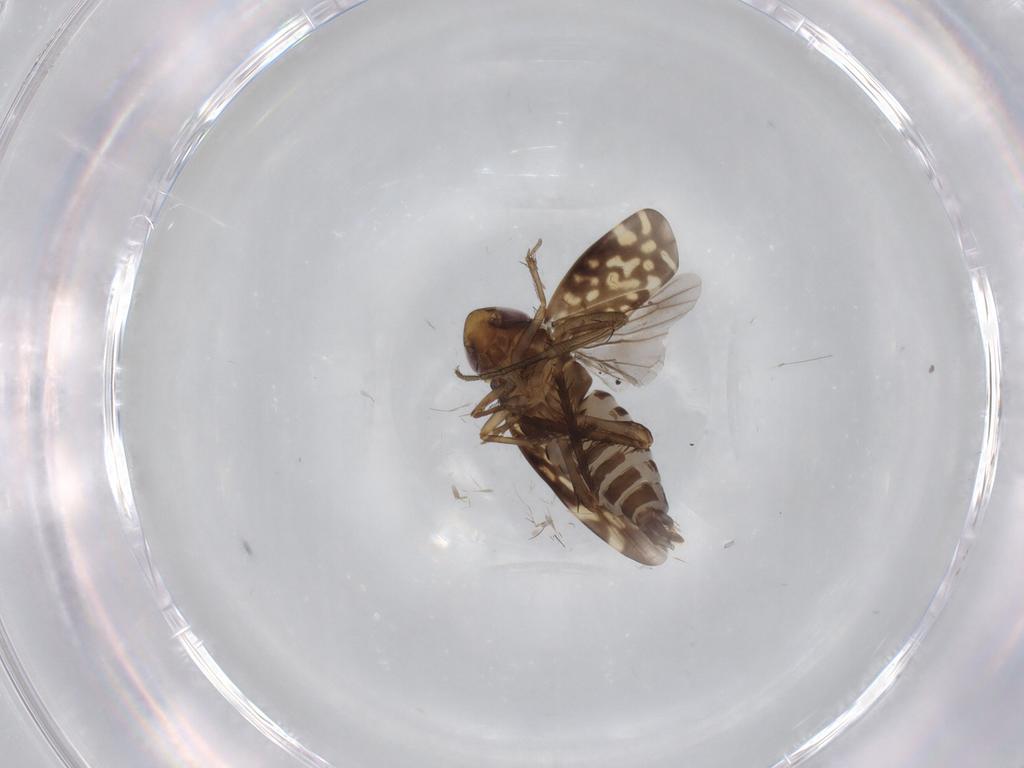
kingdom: Animalia
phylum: Arthropoda
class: Insecta
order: Hemiptera
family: Cicadellidae
